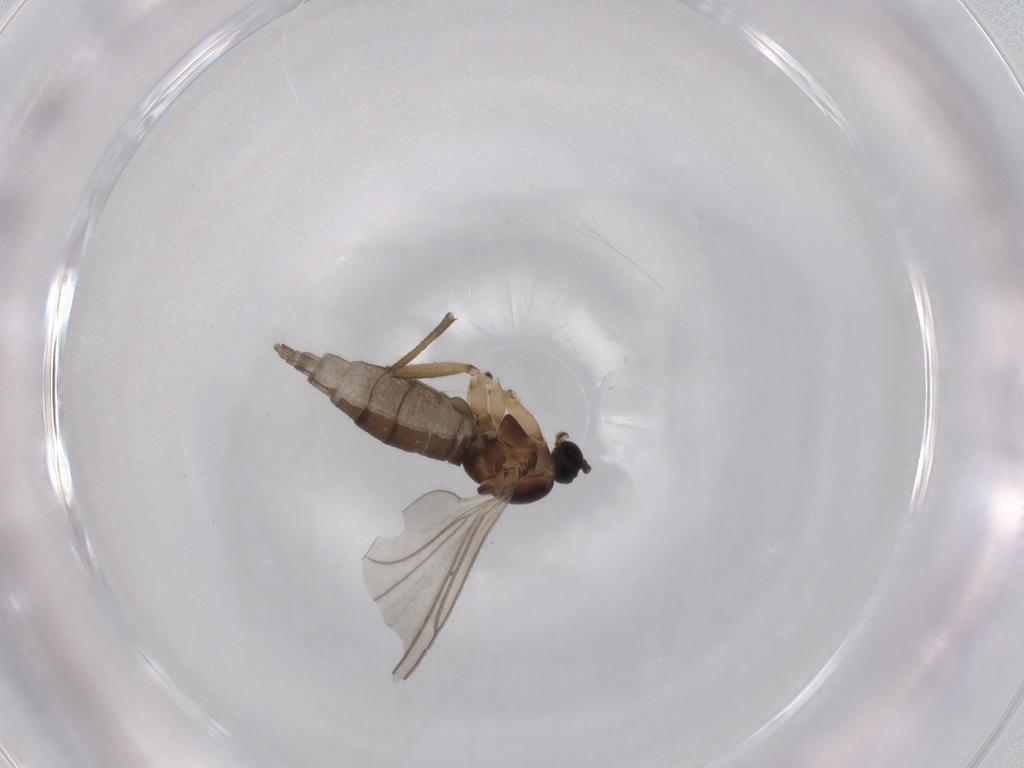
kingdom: Animalia
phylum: Arthropoda
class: Insecta
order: Diptera
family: Sciaridae
